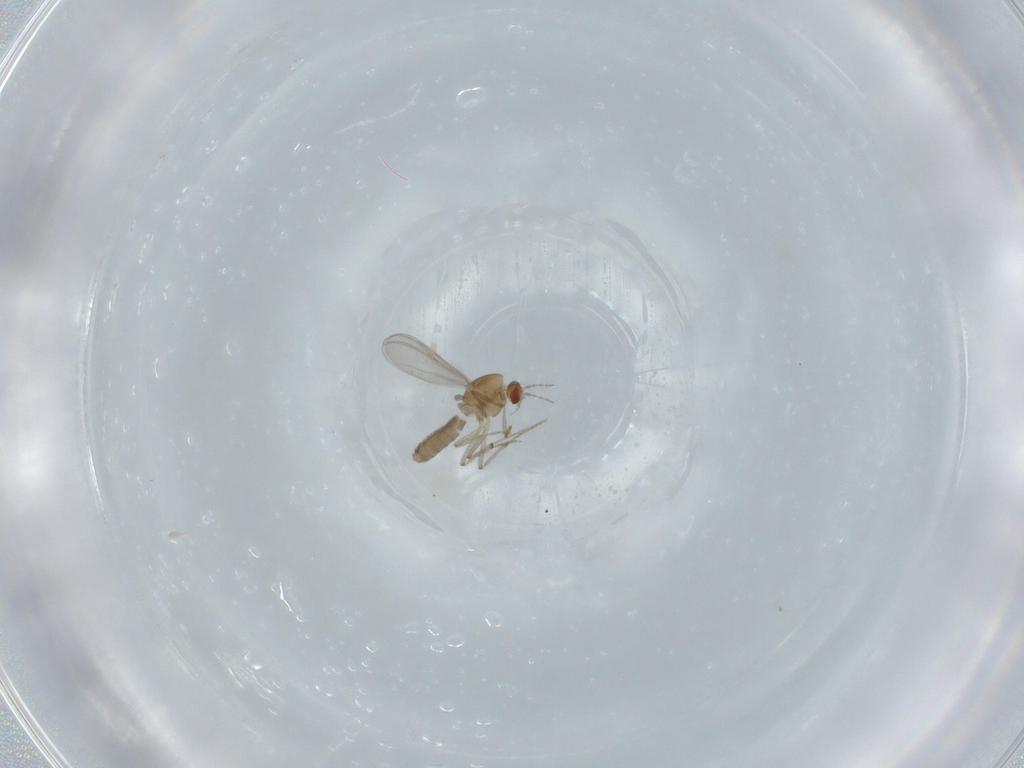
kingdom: Animalia
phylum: Arthropoda
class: Insecta
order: Diptera
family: Chironomidae
